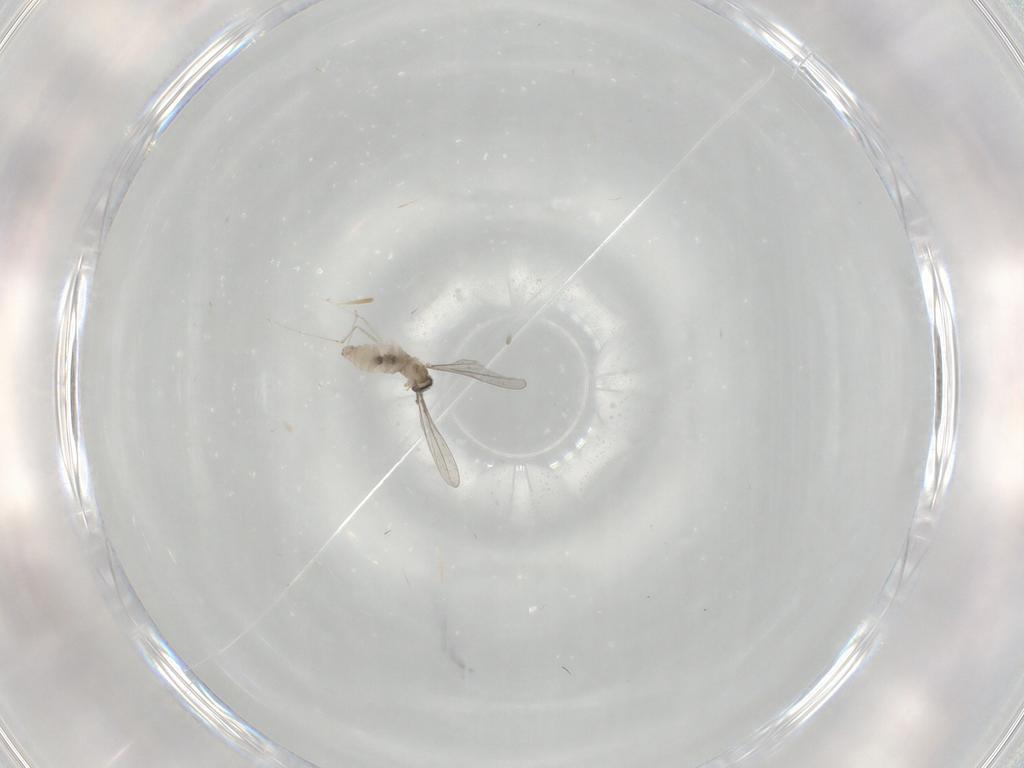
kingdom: Animalia
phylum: Arthropoda
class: Insecta
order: Diptera
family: Cecidomyiidae
